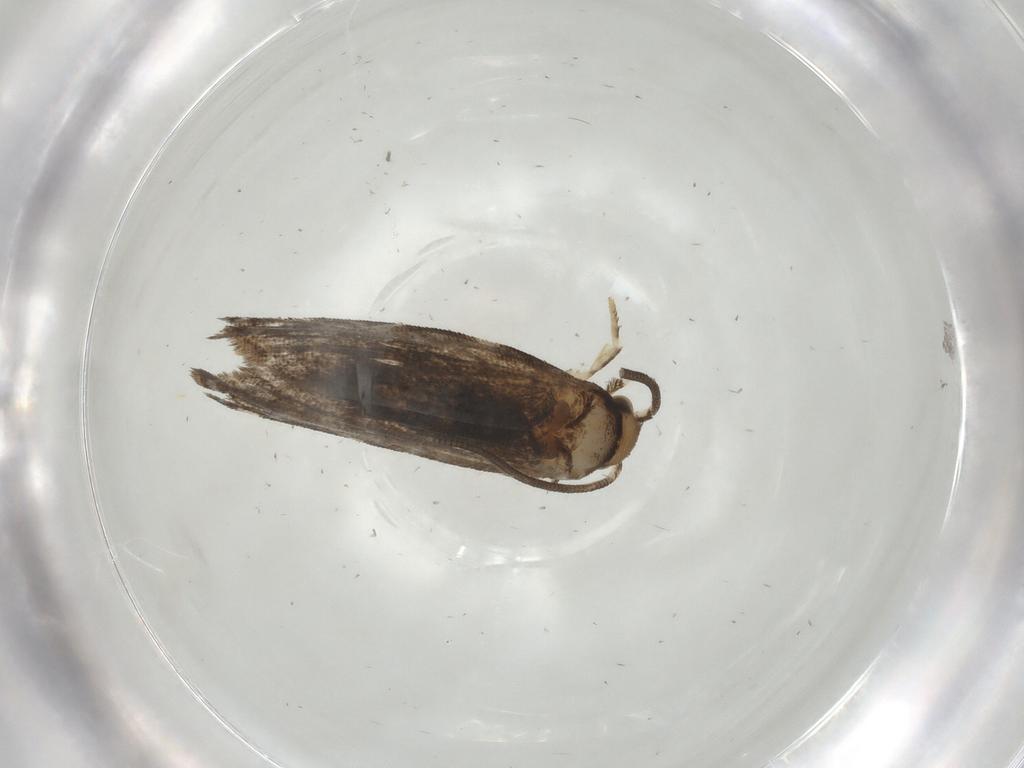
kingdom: Animalia
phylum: Arthropoda
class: Insecta
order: Lepidoptera
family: Dryadaulidae
